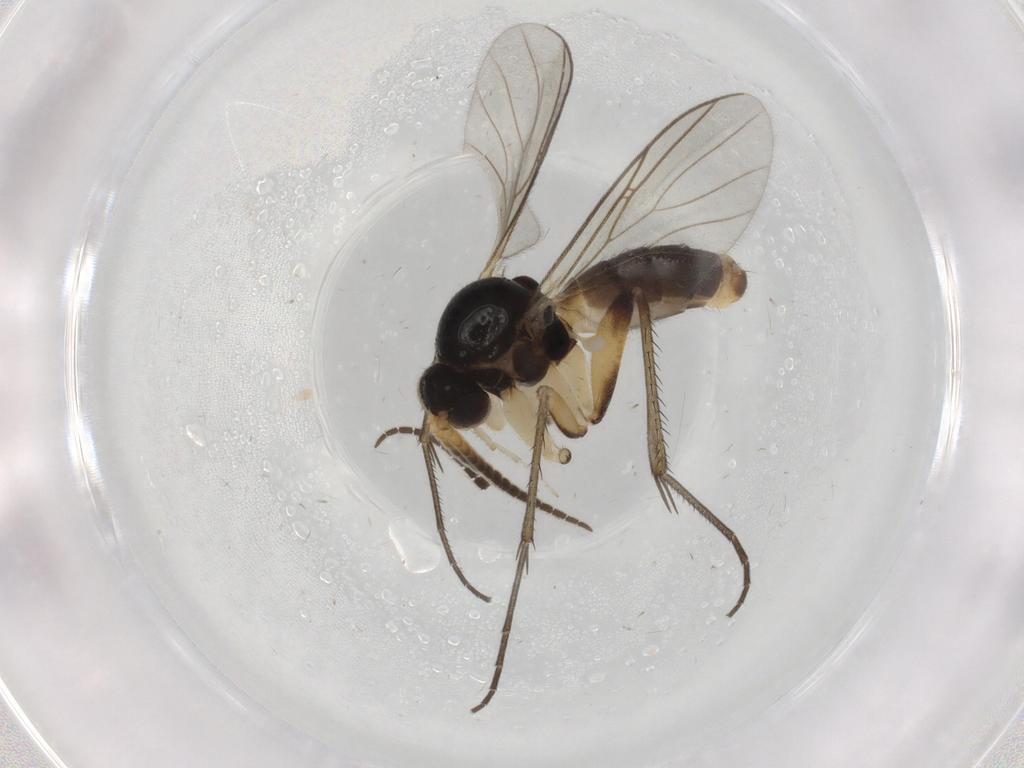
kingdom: Animalia
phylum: Arthropoda
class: Insecta
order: Diptera
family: Mycetophilidae
